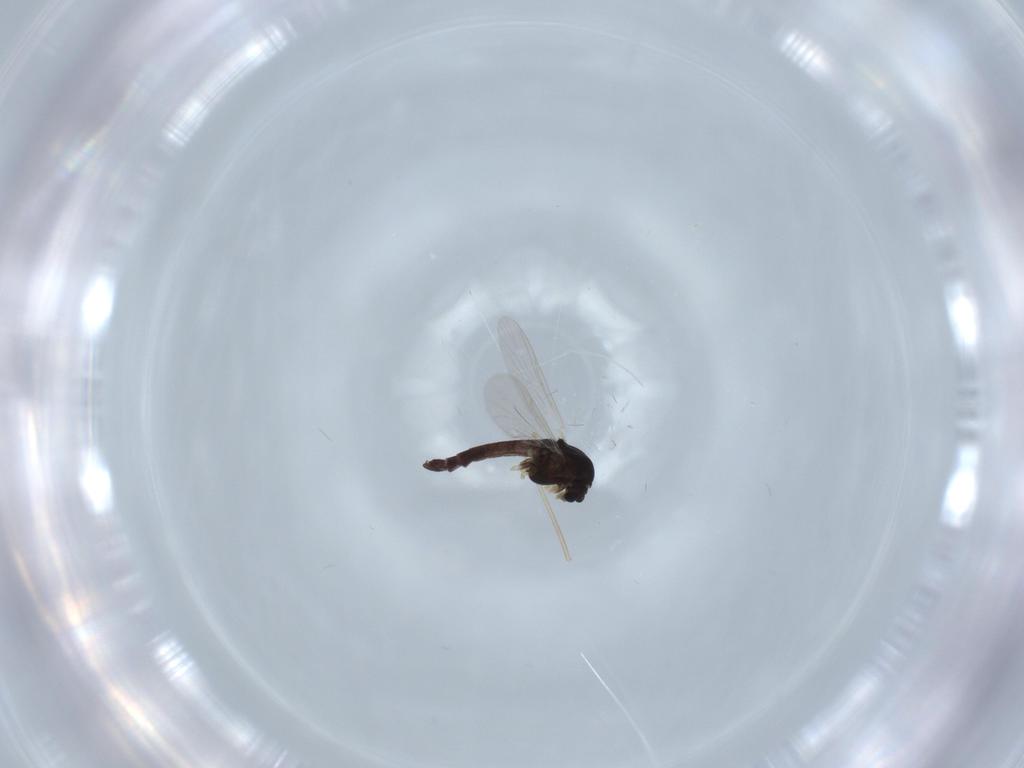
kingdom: Animalia
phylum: Arthropoda
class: Insecta
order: Diptera
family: Chironomidae
